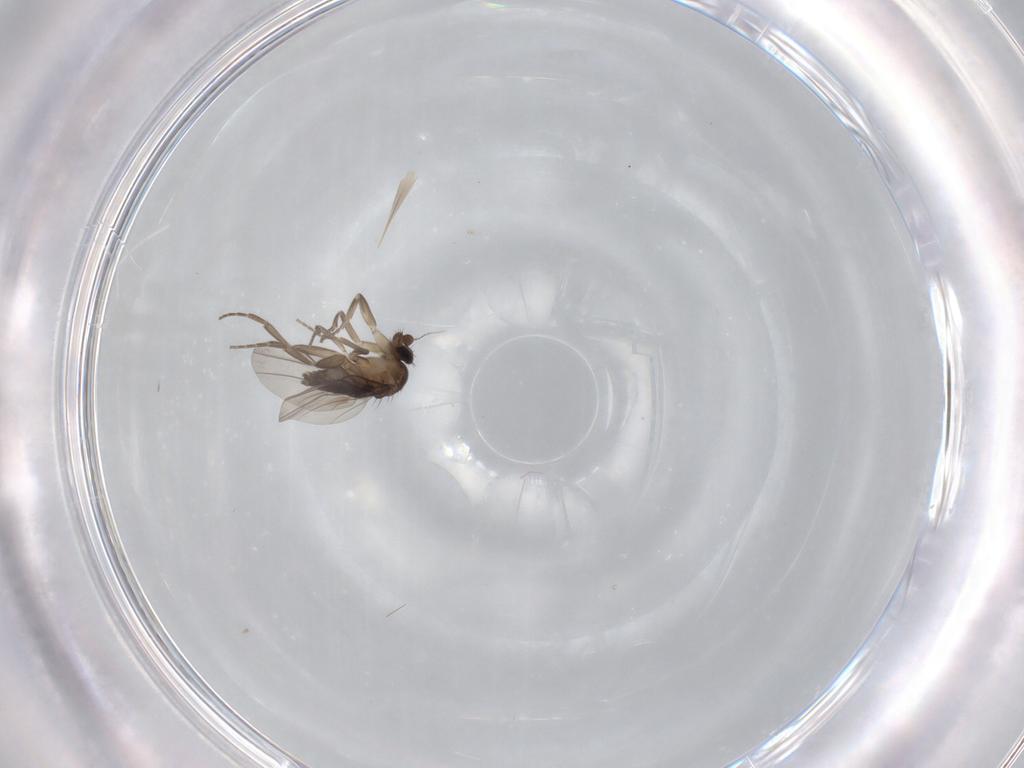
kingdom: Animalia
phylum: Arthropoda
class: Insecta
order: Diptera
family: Phoridae
